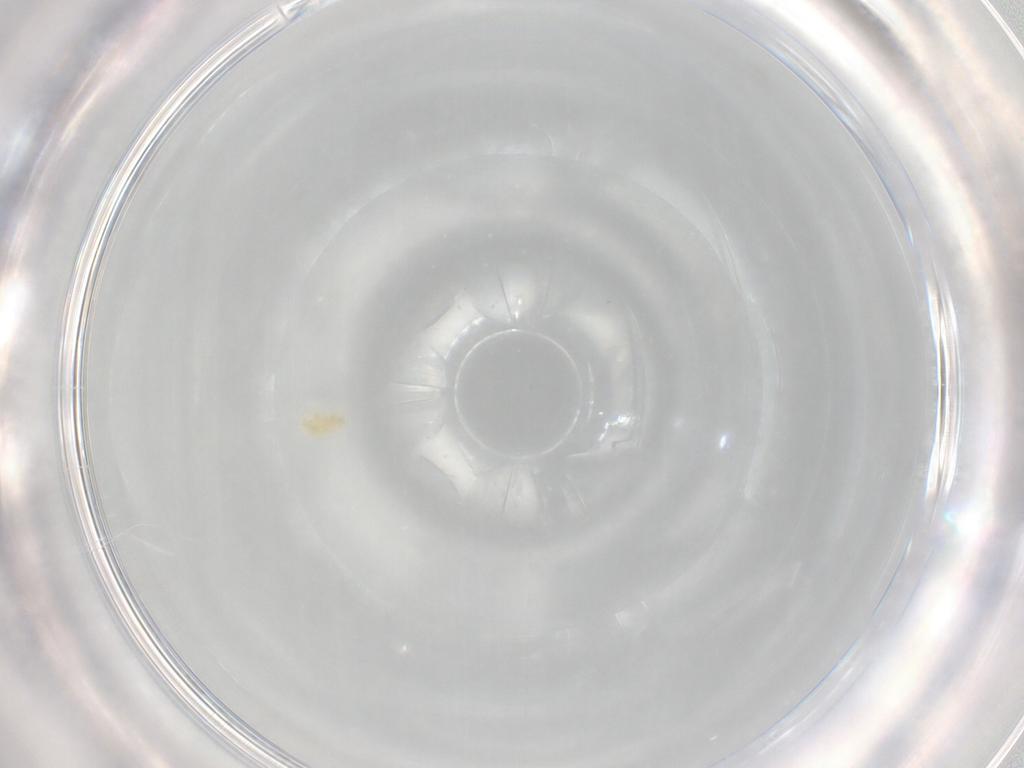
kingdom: Animalia
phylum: Arthropoda
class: Arachnida
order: Trombidiformes
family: Eupodidae
